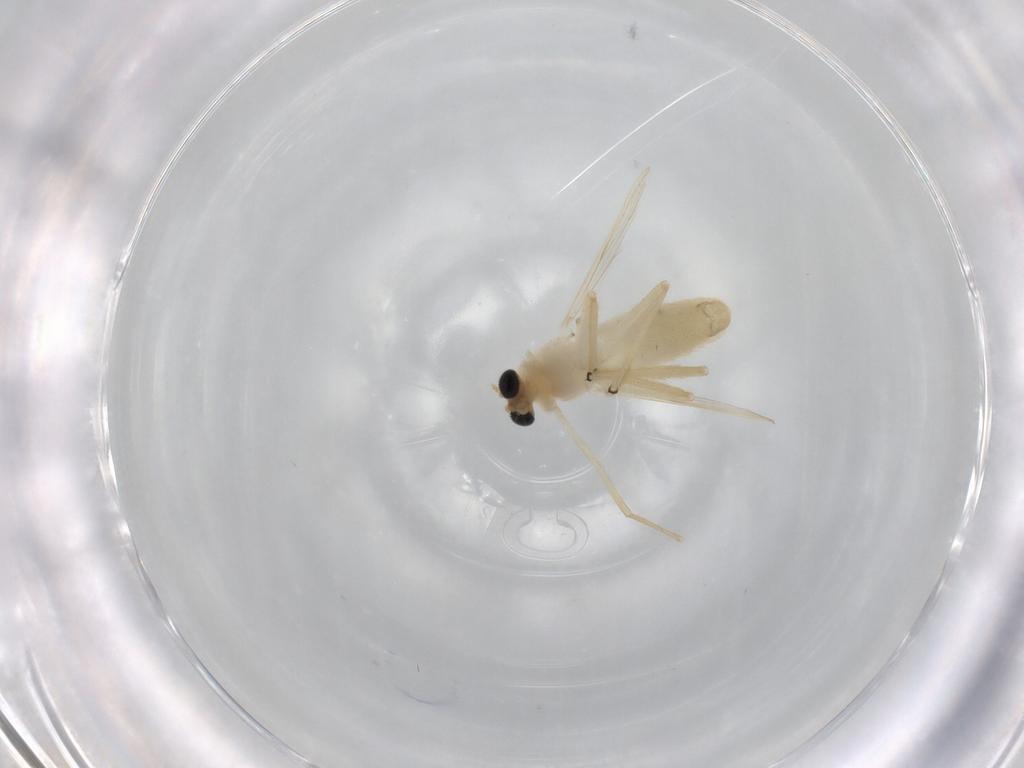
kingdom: Animalia
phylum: Arthropoda
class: Insecta
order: Diptera
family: Chironomidae
